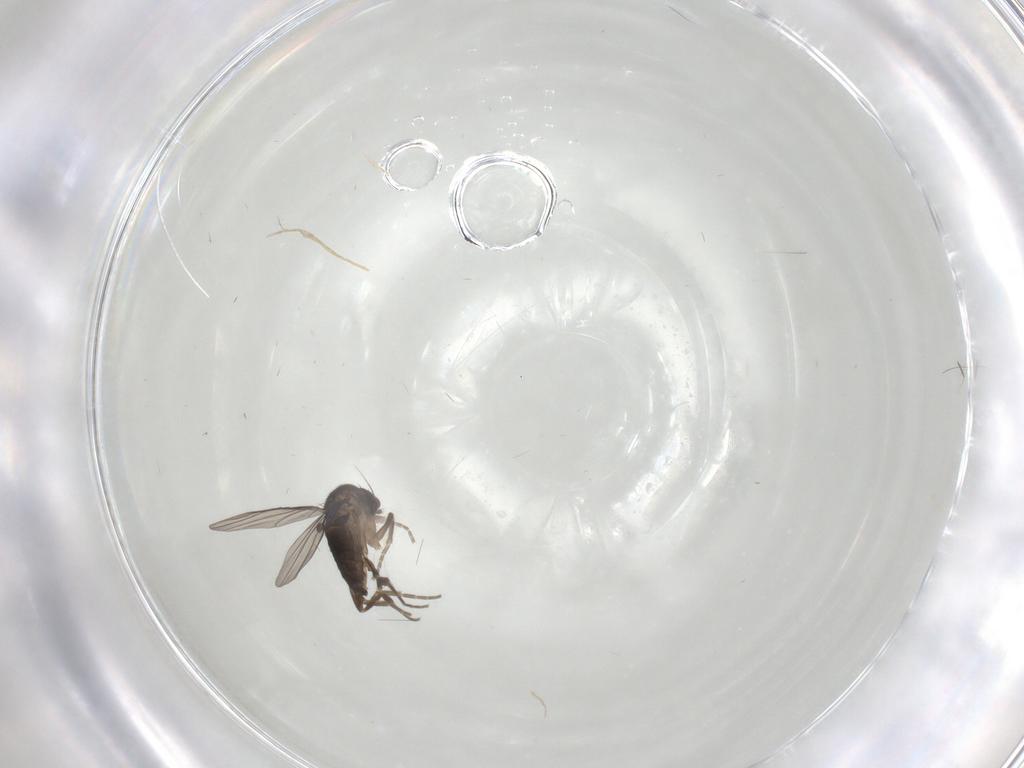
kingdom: Animalia
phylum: Arthropoda
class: Insecta
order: Diptera
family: Phoridae
